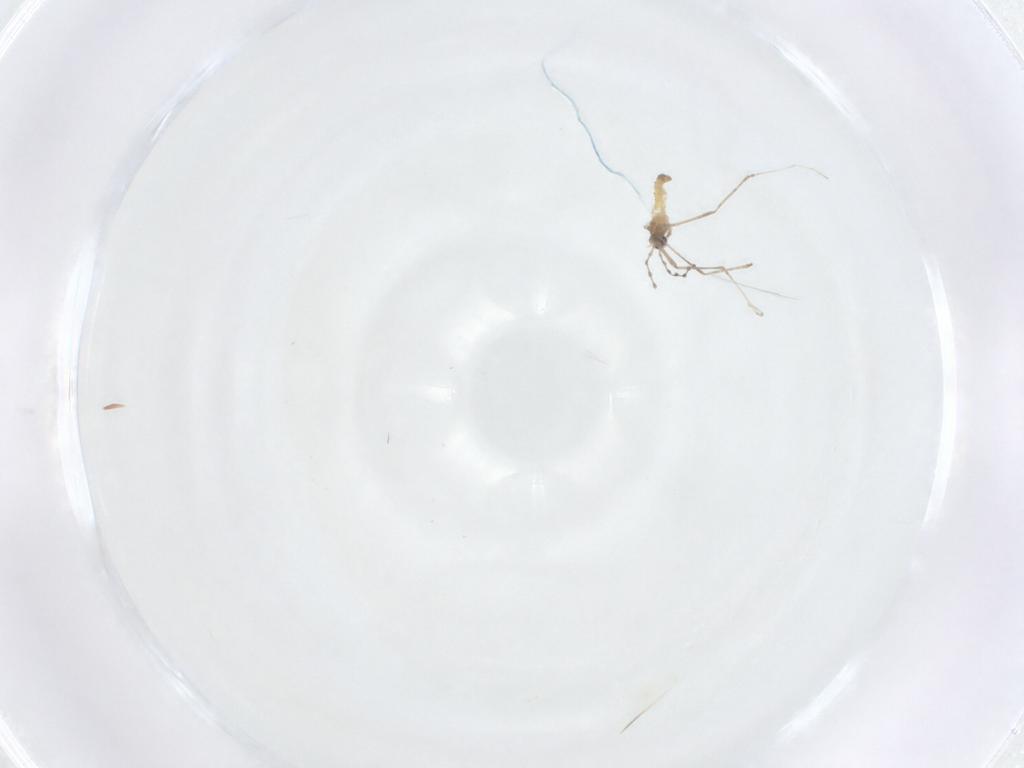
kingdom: Animalia
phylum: Arthropoda
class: Insecta
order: Diptera
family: Cecidomyiidae
